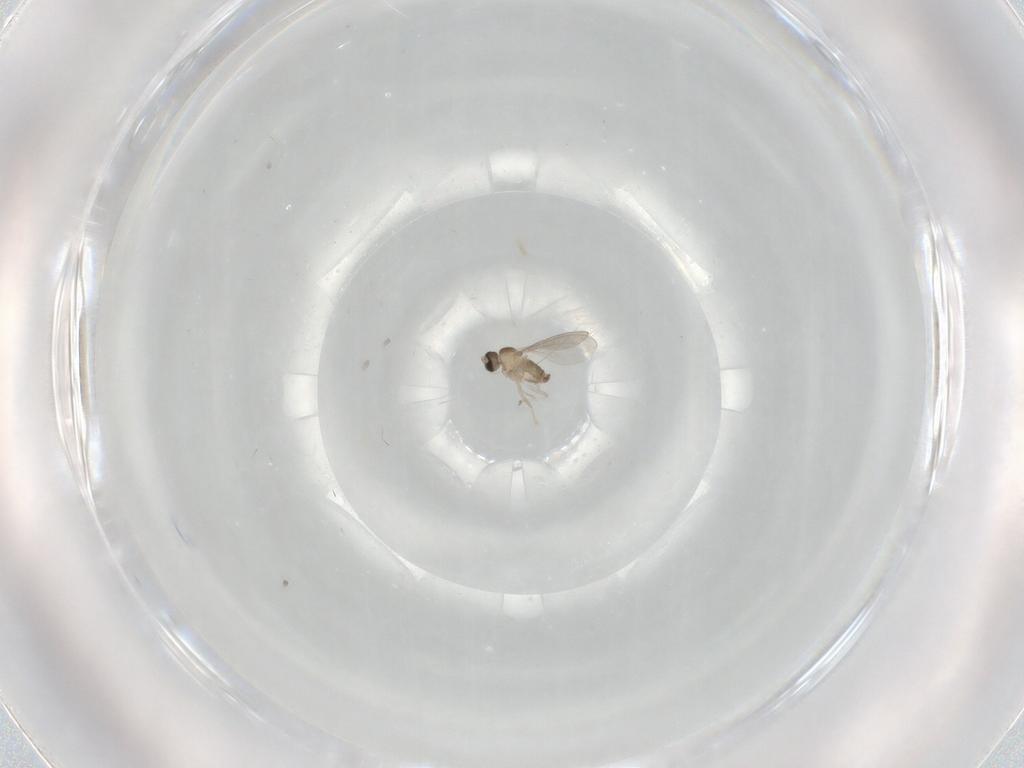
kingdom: Animalia
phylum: Arthropoda
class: Insecta
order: Diptera
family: Cecidomyiidae
